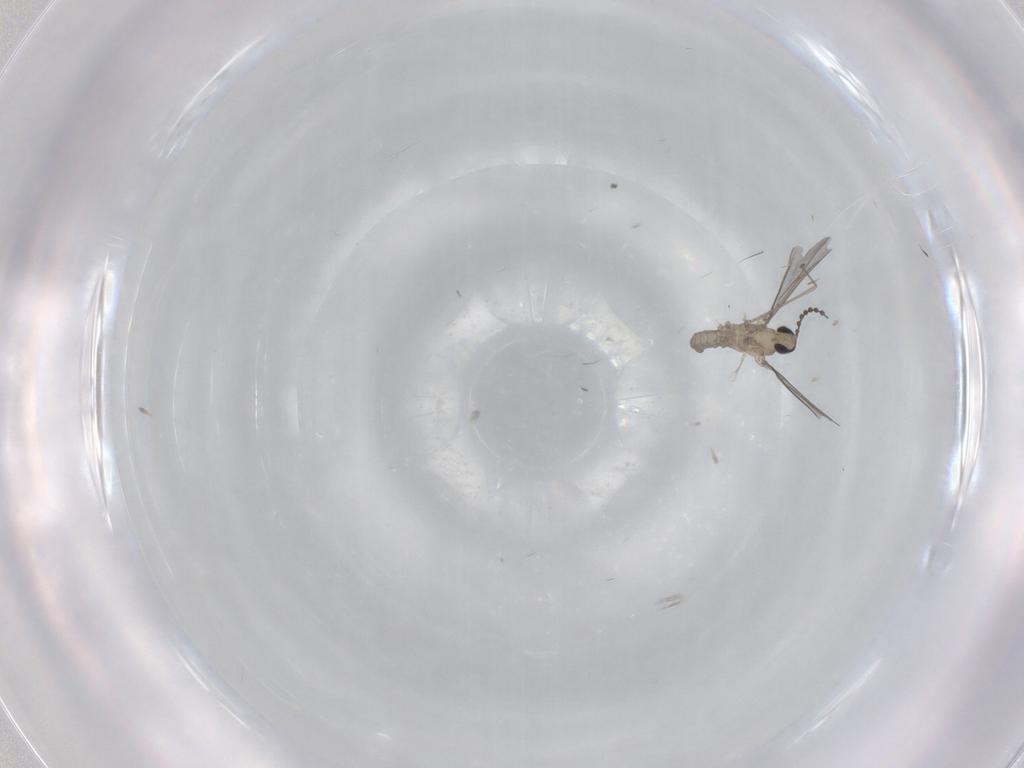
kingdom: Animalia
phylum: Arthropoda
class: Insecta
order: Diptera
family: Cecidomyiidae
